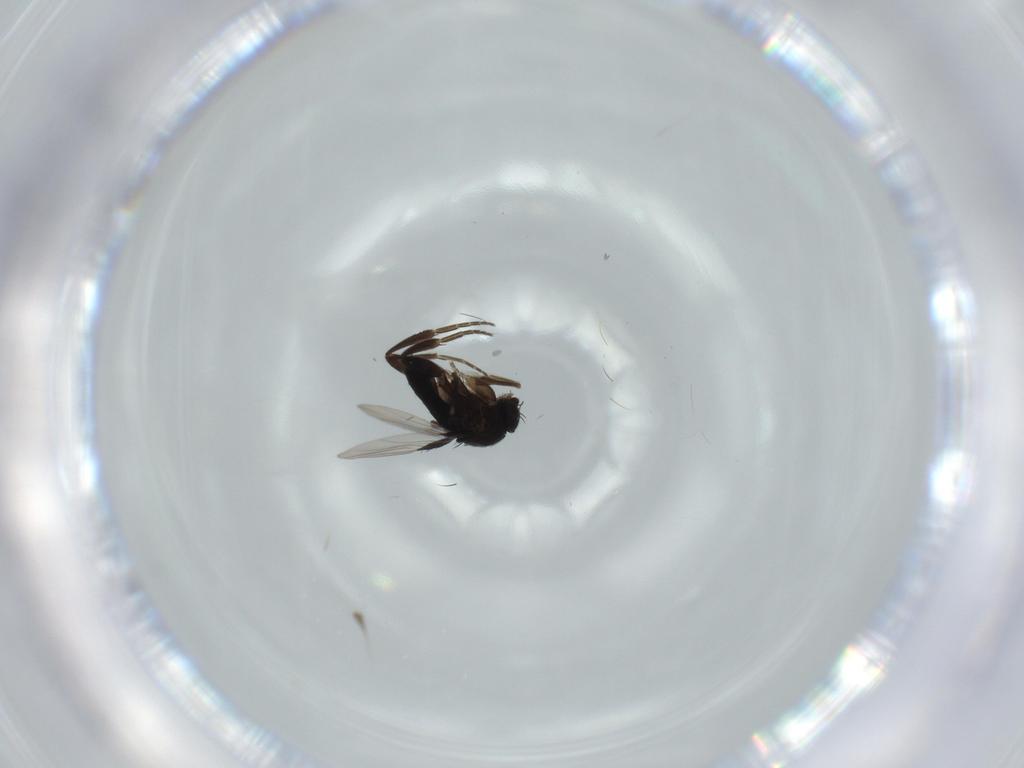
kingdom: Animalia
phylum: Arthropoda
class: Insecta
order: Diptera
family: Phoridae
